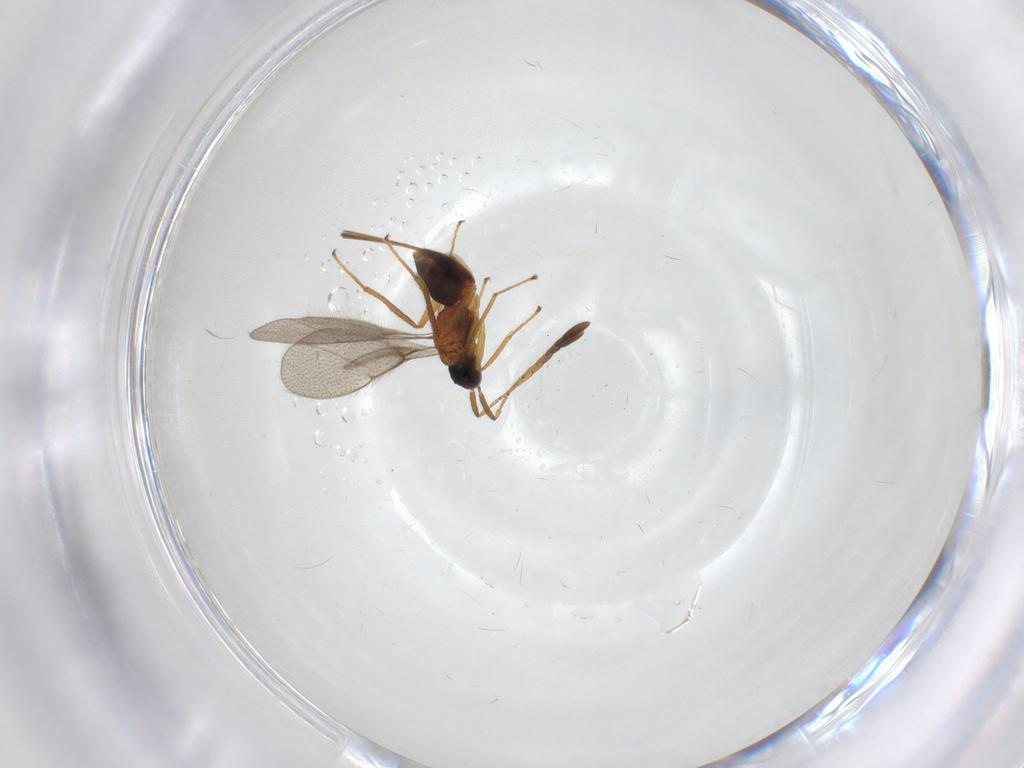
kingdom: Animalia
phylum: Arthropoda
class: Insecta
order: Hymenoptera
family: Mymaridae
